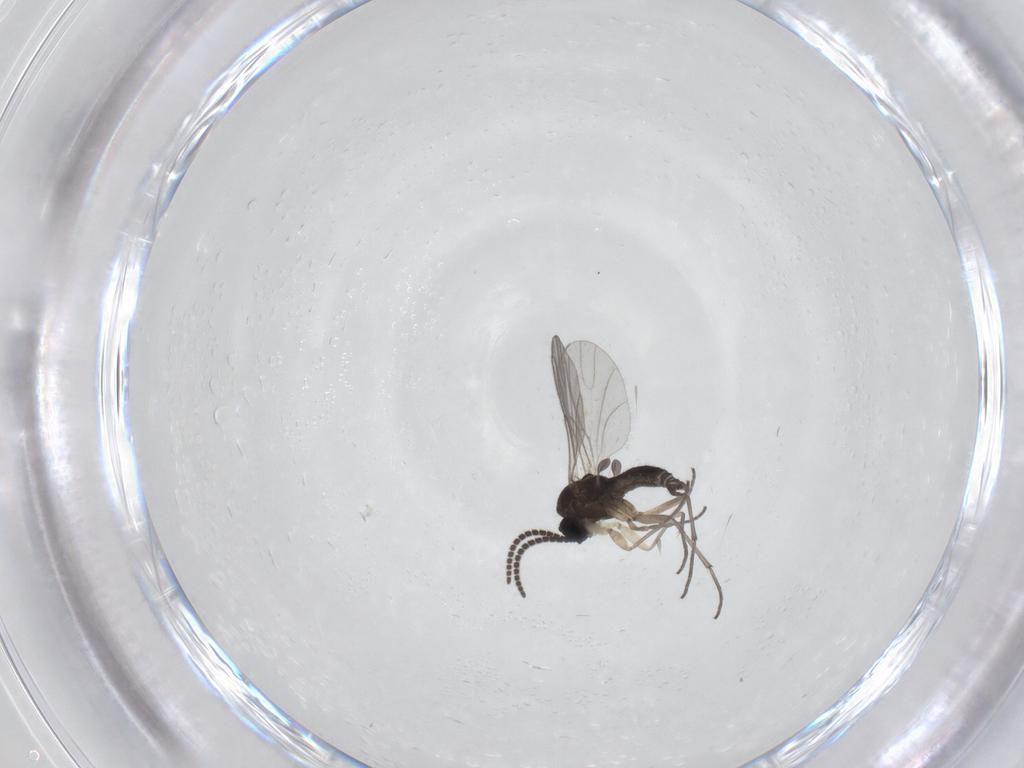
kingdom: Animalia
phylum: Arthropoda
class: Insecta
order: Diptera
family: Sciaridae
